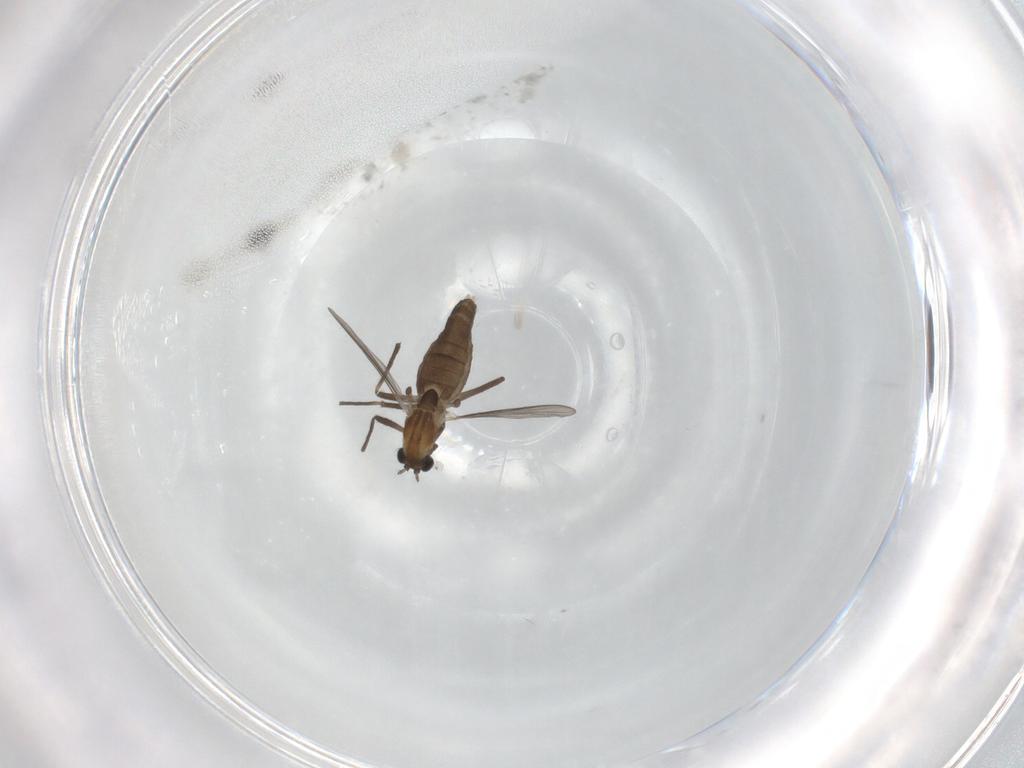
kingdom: Animalia
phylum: Arthropoda
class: Insecta
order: Diptera
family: Chironomidae
